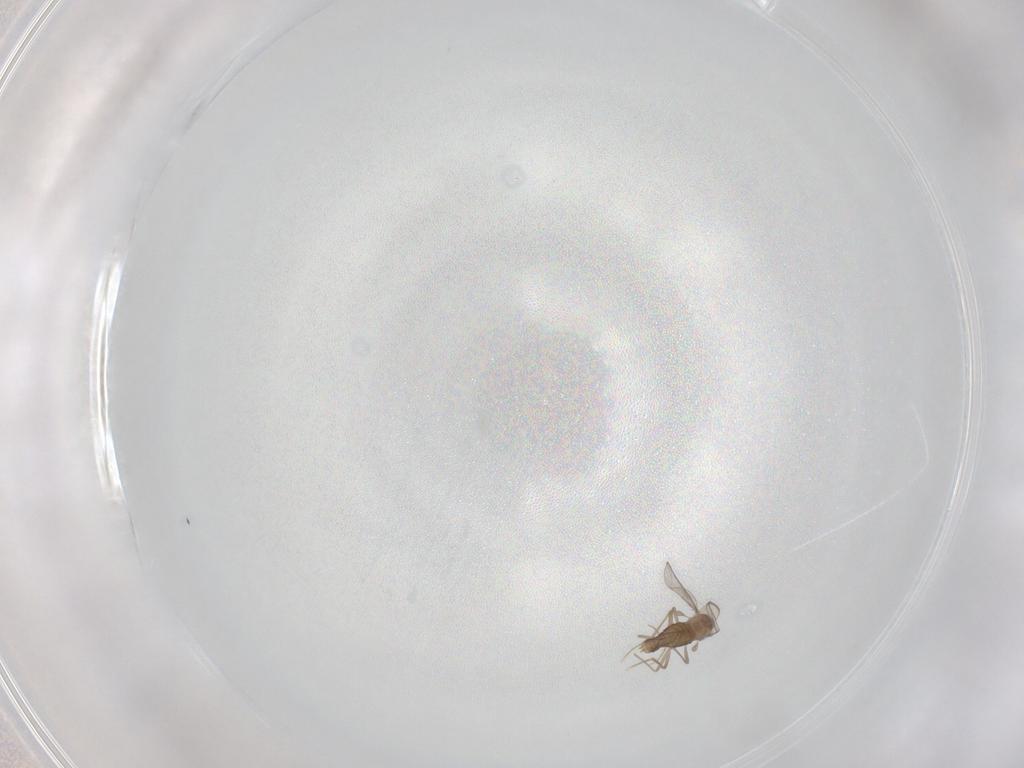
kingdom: Animalia
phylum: Arthropoda
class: Insecta
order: Diptera
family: Chironomidae
